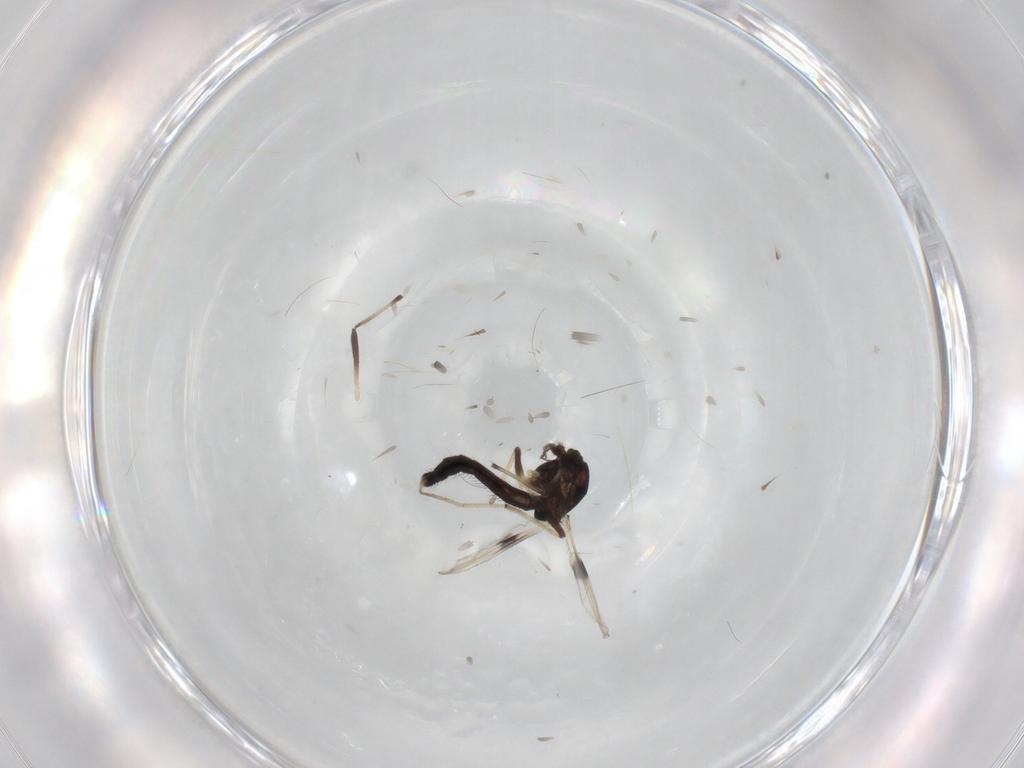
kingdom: Animalia
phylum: Arthropoda
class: Insecta
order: Diptera
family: Chironomidae
